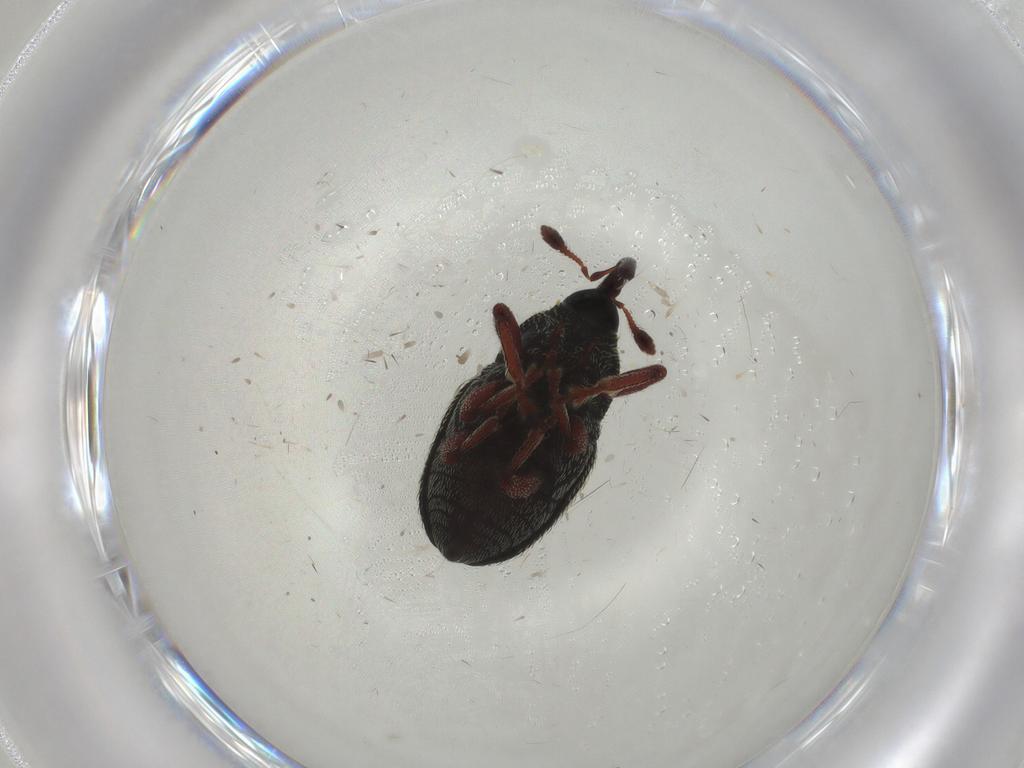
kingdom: Animalia
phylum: Arthropoda
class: Insecta
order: Coleoptera
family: Curculionidae
